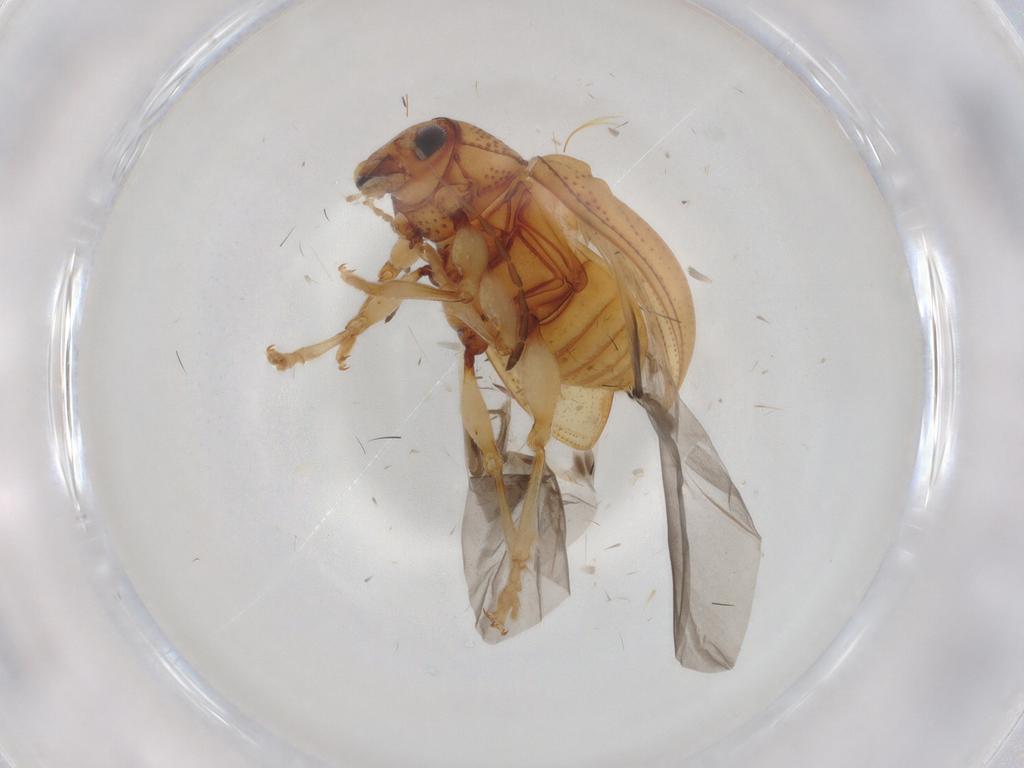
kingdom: Animalia
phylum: Arthropoda
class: Insecta
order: Coleoptera
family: Chrysomelidae
